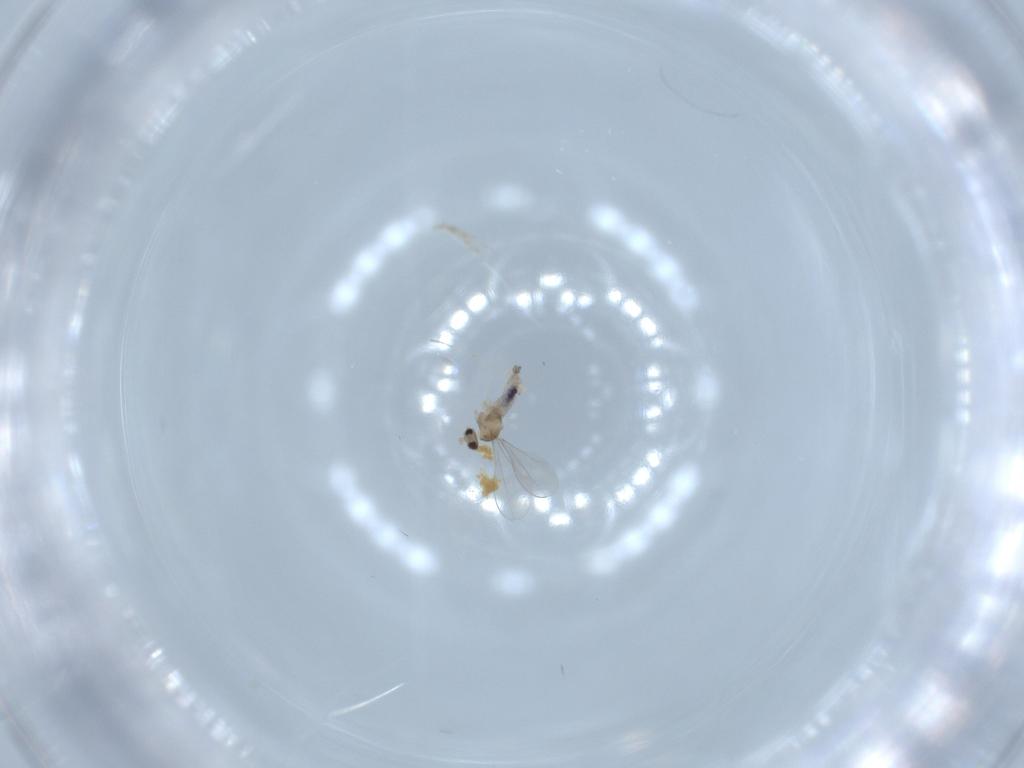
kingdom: Animalia
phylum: Arthropoda
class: Insecta
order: Diptera
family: Cecidomyiidae
